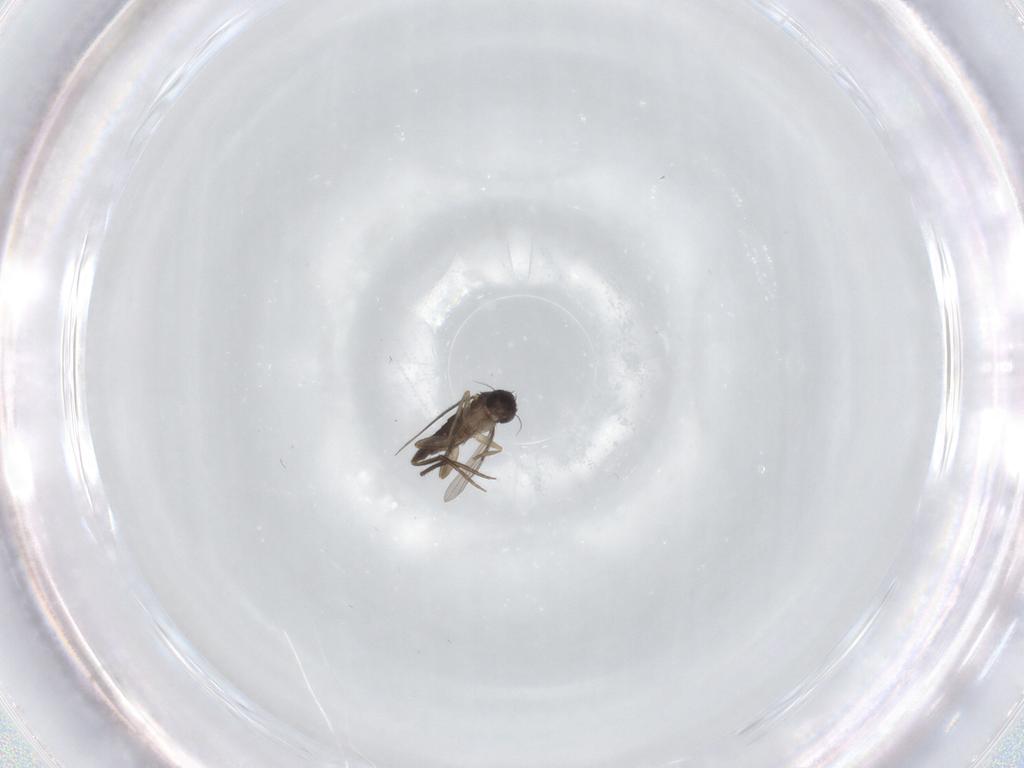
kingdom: Animalia
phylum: Arthropoda
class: Insecta
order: Diptera
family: Phoridae
